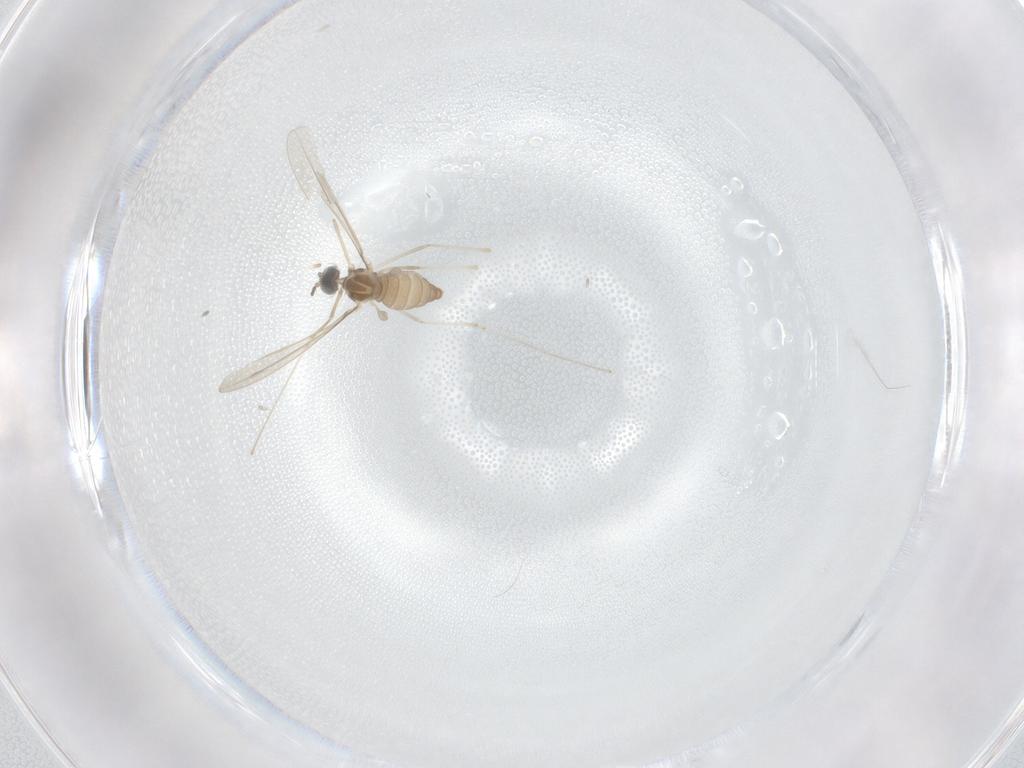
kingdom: Animalia
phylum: Arthropoda
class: Insecta
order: Diptera
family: Cecidomyiidae
